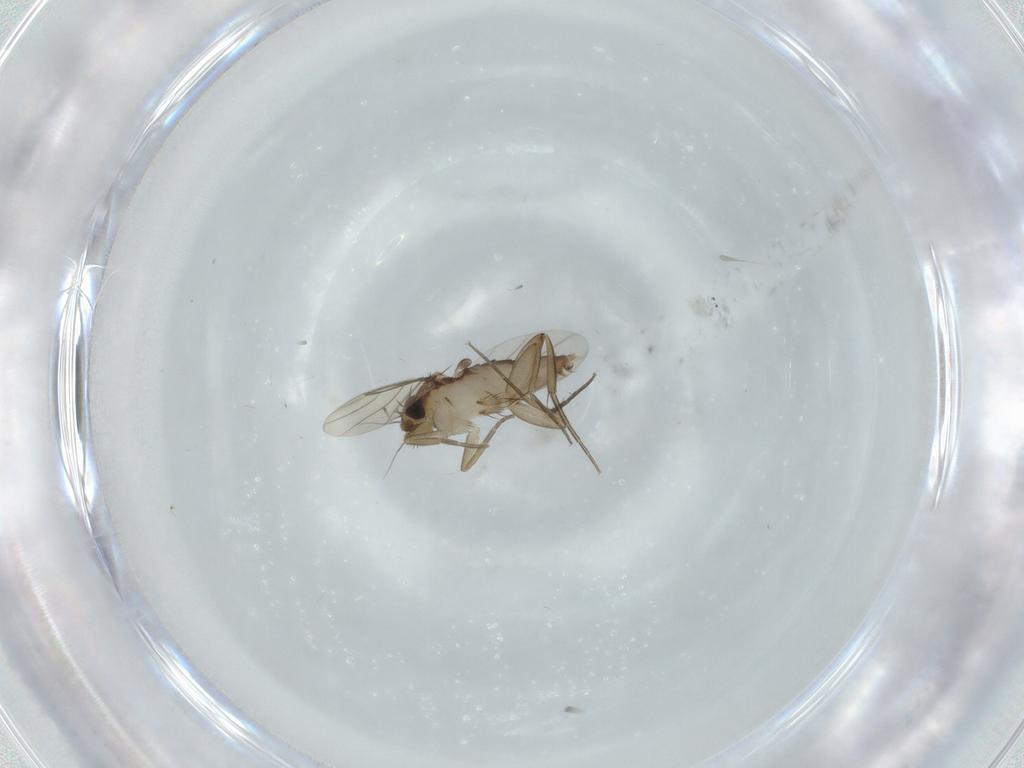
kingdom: Animalia
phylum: Arthropoda
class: Insecta
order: Diptera
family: Phoridae
